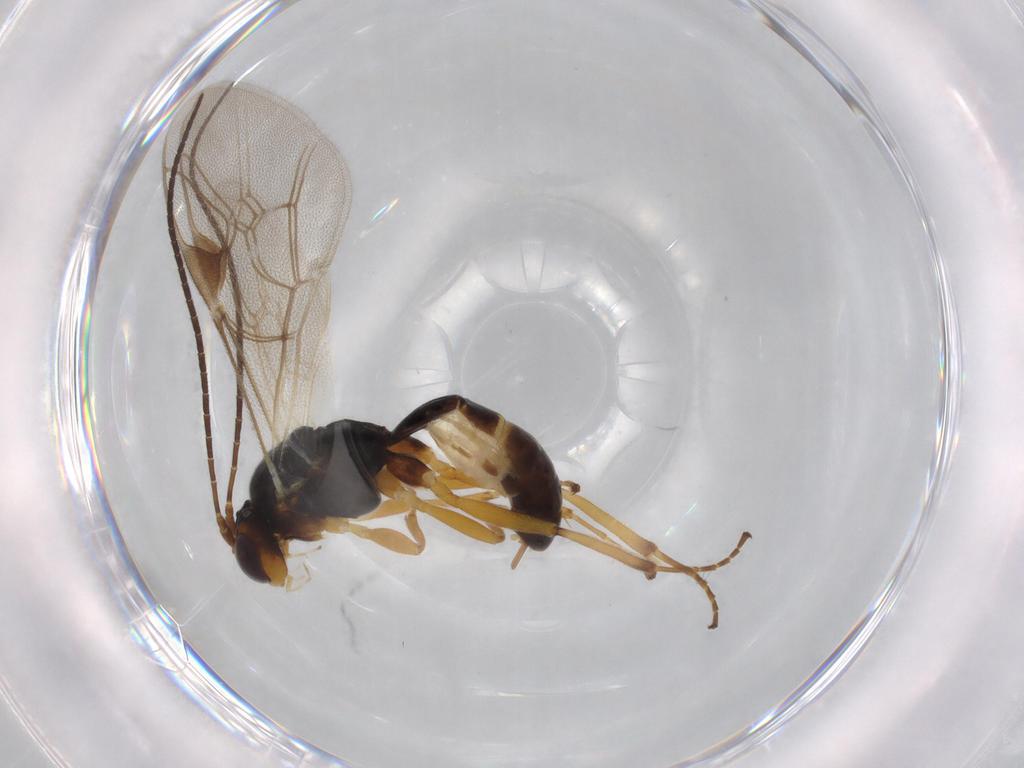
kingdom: Animalia
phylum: Arthropoda
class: Insecta
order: Hymenoptera
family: Ichneumonidae
